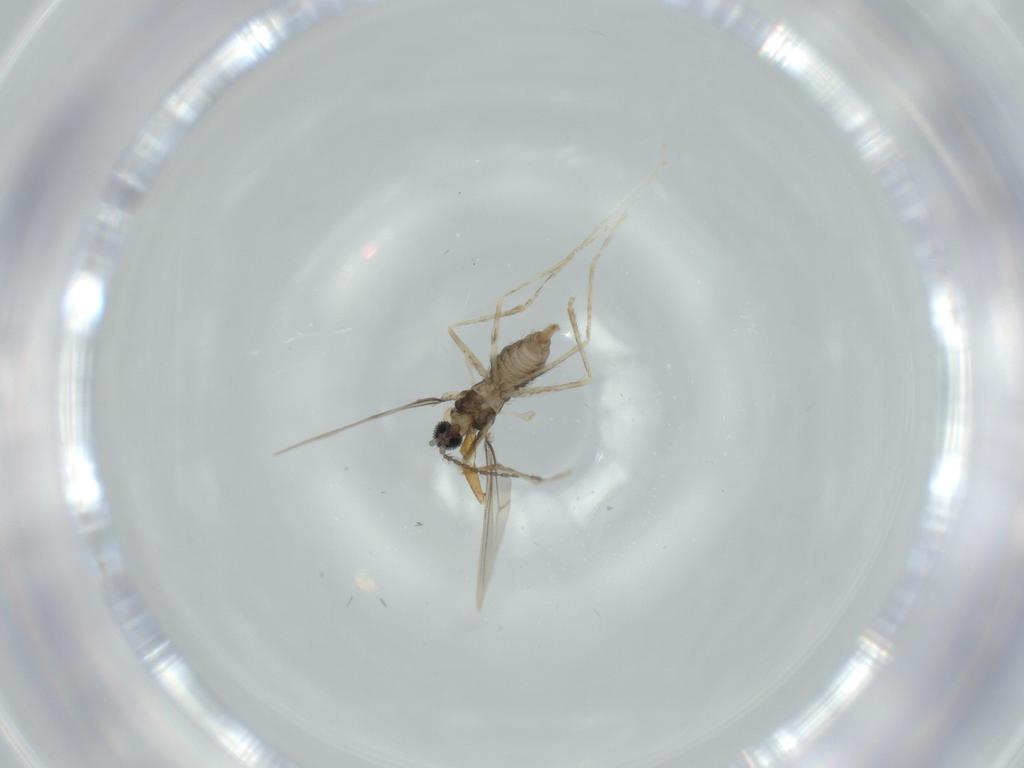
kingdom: Animalia
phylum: Arthropoda
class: Insecta
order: Diptera
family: Cecidomyiidae
